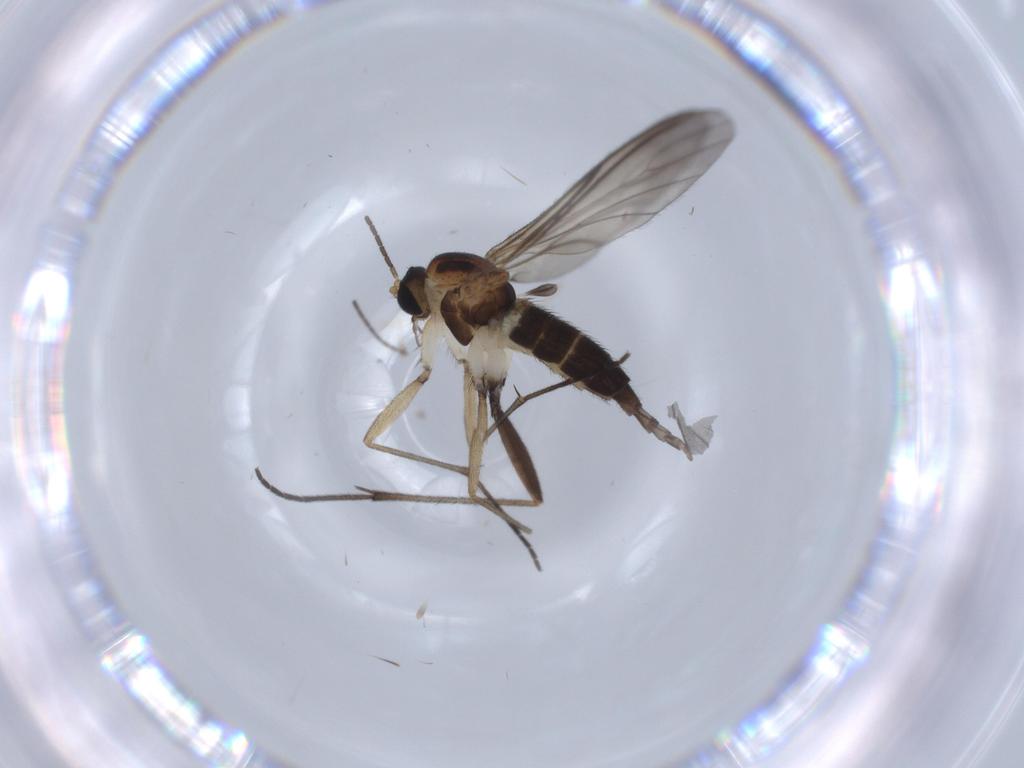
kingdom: Animalia
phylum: Arthropoda
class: Insecta
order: Diptera
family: Sciaridae
